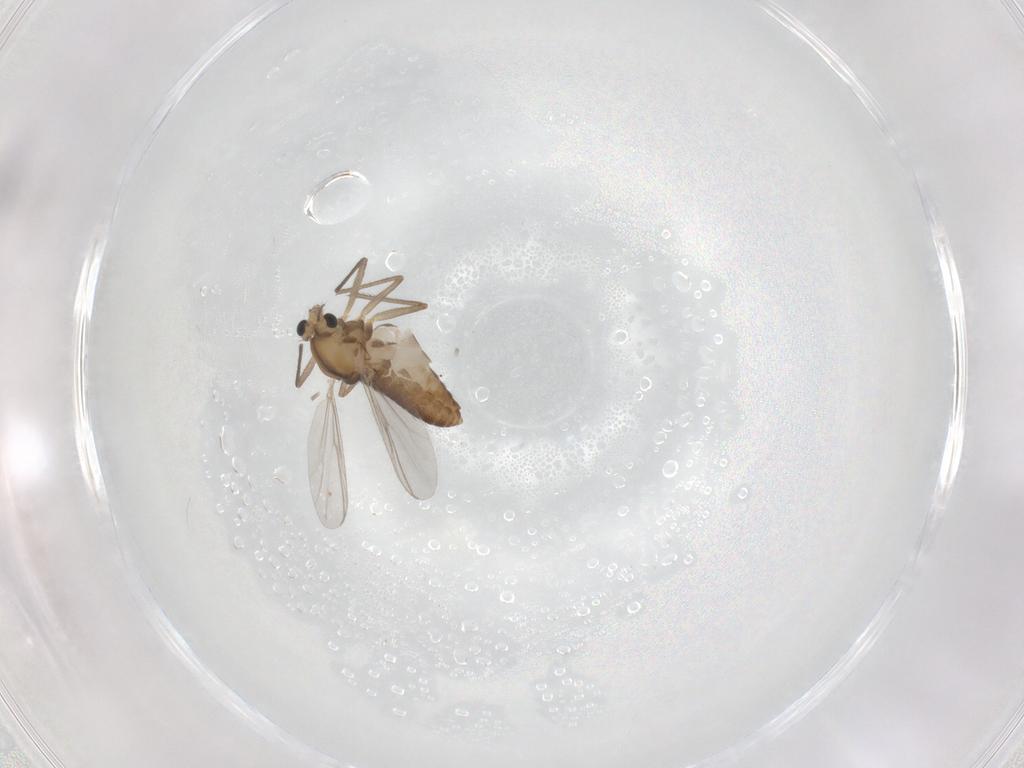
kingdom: Animalia
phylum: Arthropoda
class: Insecta
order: Diptera
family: Chironomidae
